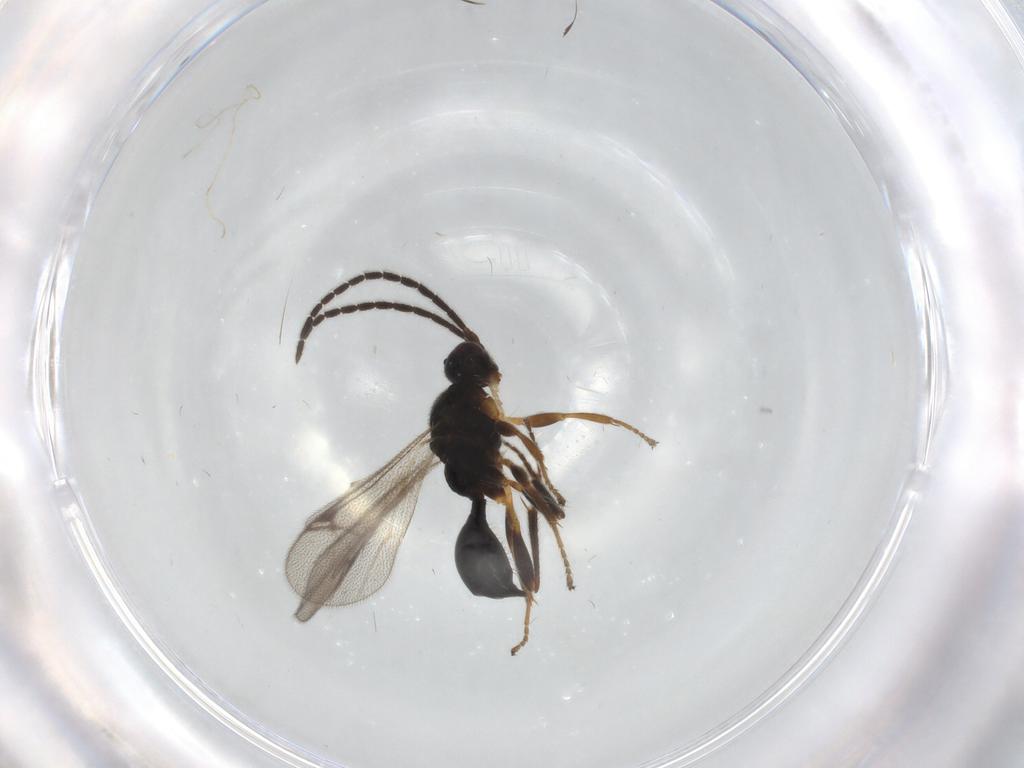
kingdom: Animalia
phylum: Arthropoda
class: Insecta
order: Hymenoptera
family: Proctotrupidae
